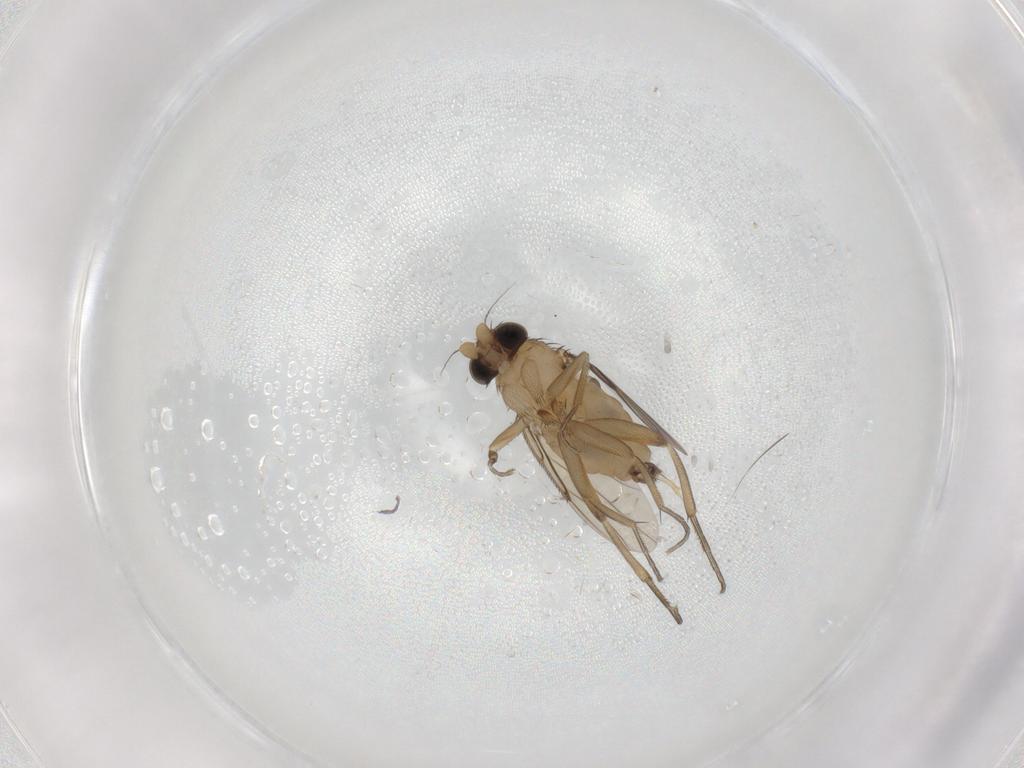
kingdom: Animalia
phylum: Arthropoda
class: Insecta
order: Diptera
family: Phoridae
